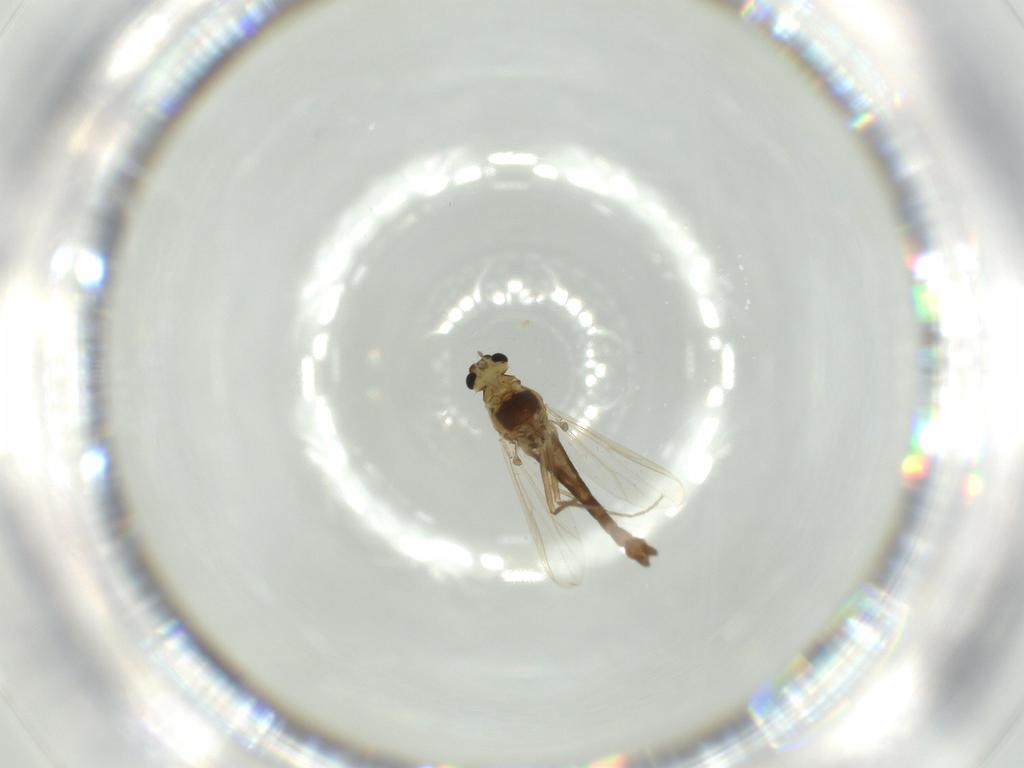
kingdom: Animalia
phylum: Arthropoda
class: Insecta
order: Diptera
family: Chironomidae
